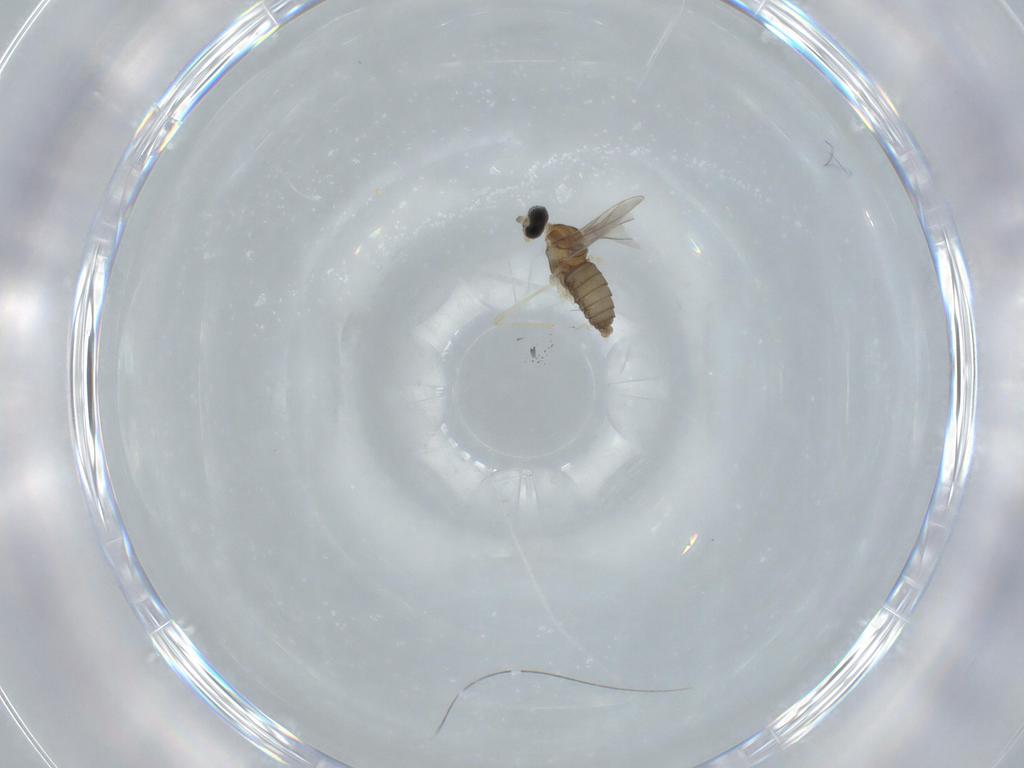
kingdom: Animalia
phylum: Arthropoda
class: Insecta
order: Diptera
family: Cecidomyiidae
